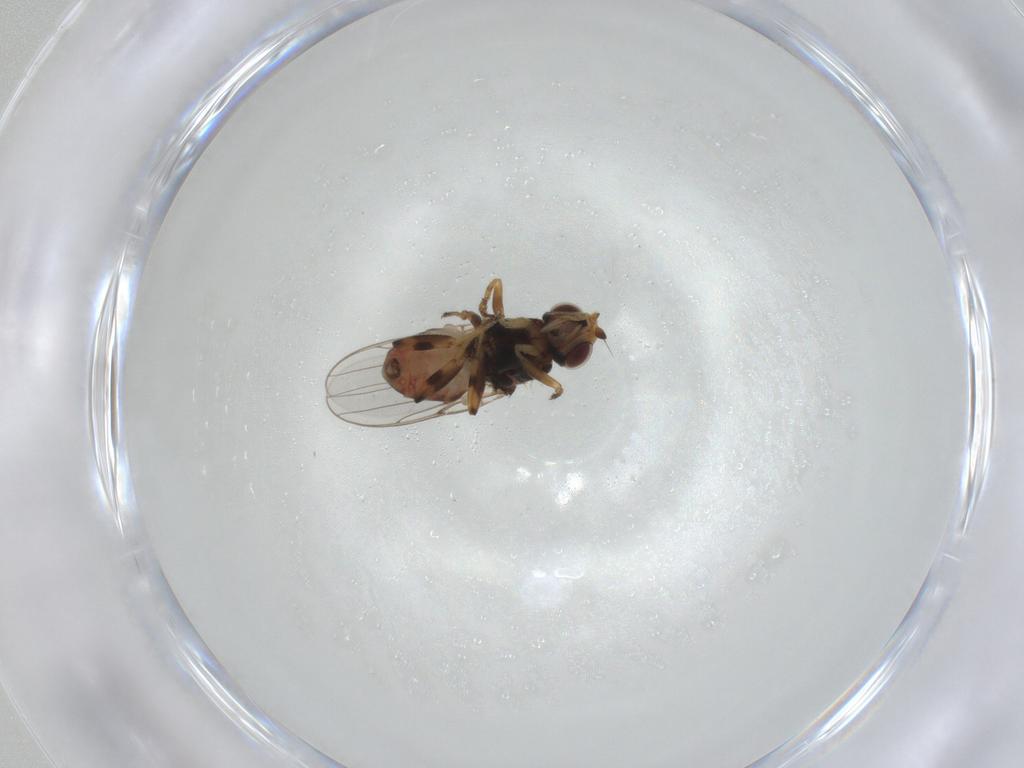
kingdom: Animalia
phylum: Arthropoda
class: Insecta
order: Diptera
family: Chloropidae
